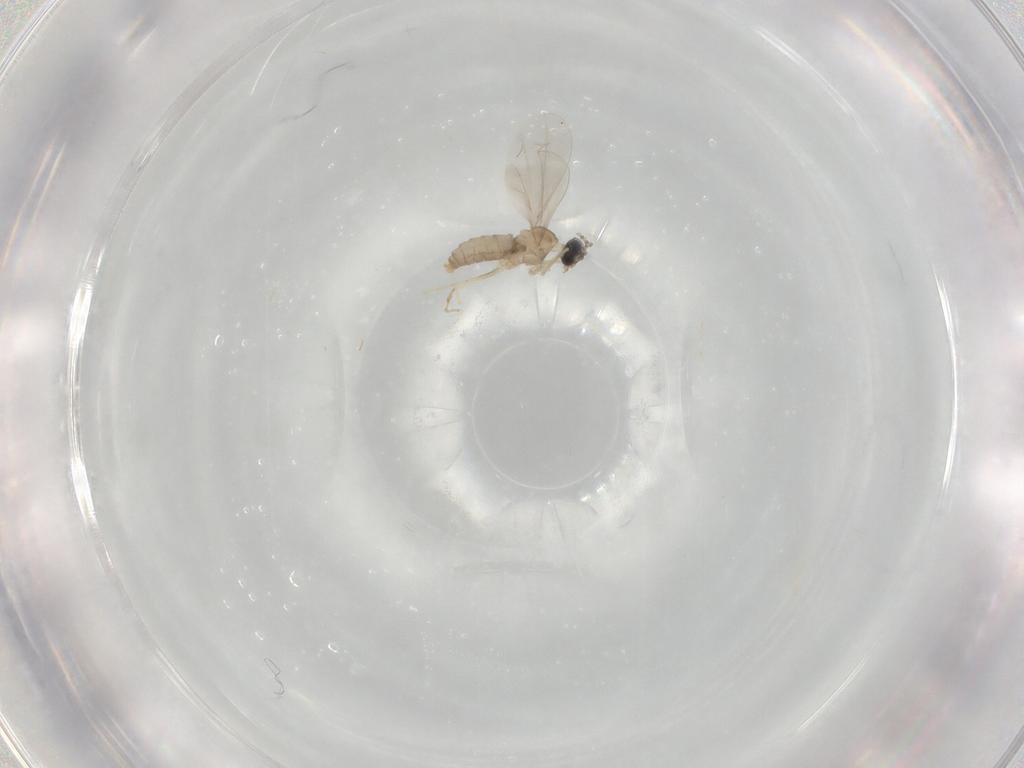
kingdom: Animalia
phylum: Arthropoda
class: Insecta
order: Diptera
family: Cecidomyiidae
